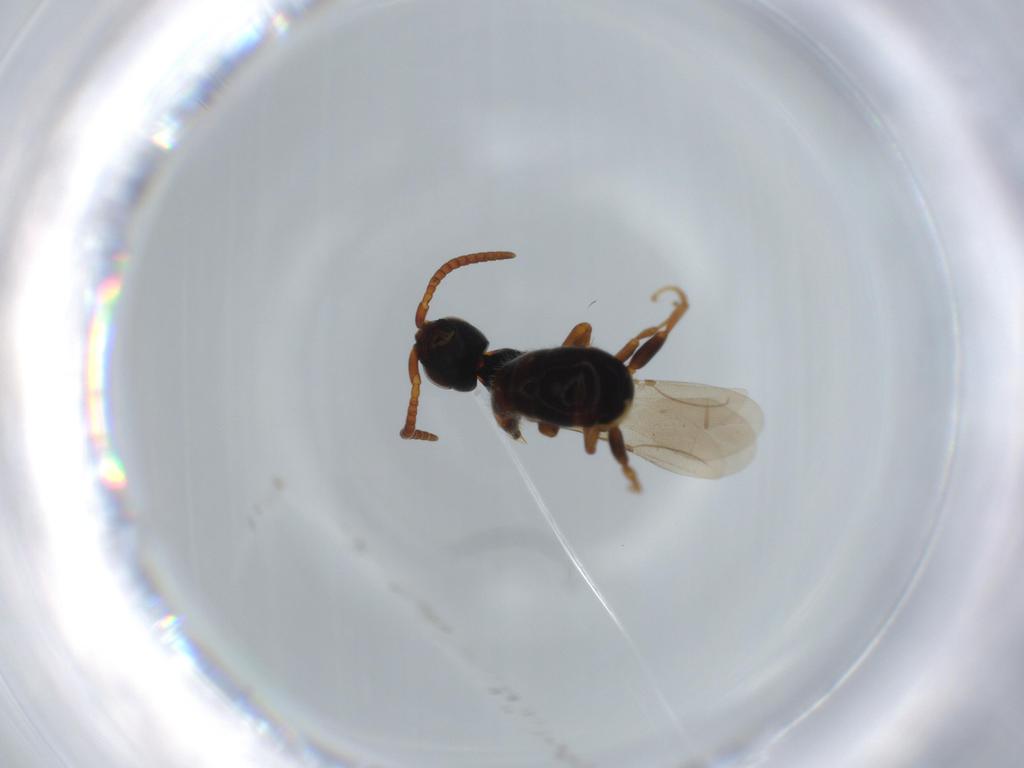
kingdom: Animalia
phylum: Arthropoda
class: Insecta
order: Hymenoptera
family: Bethylidae
